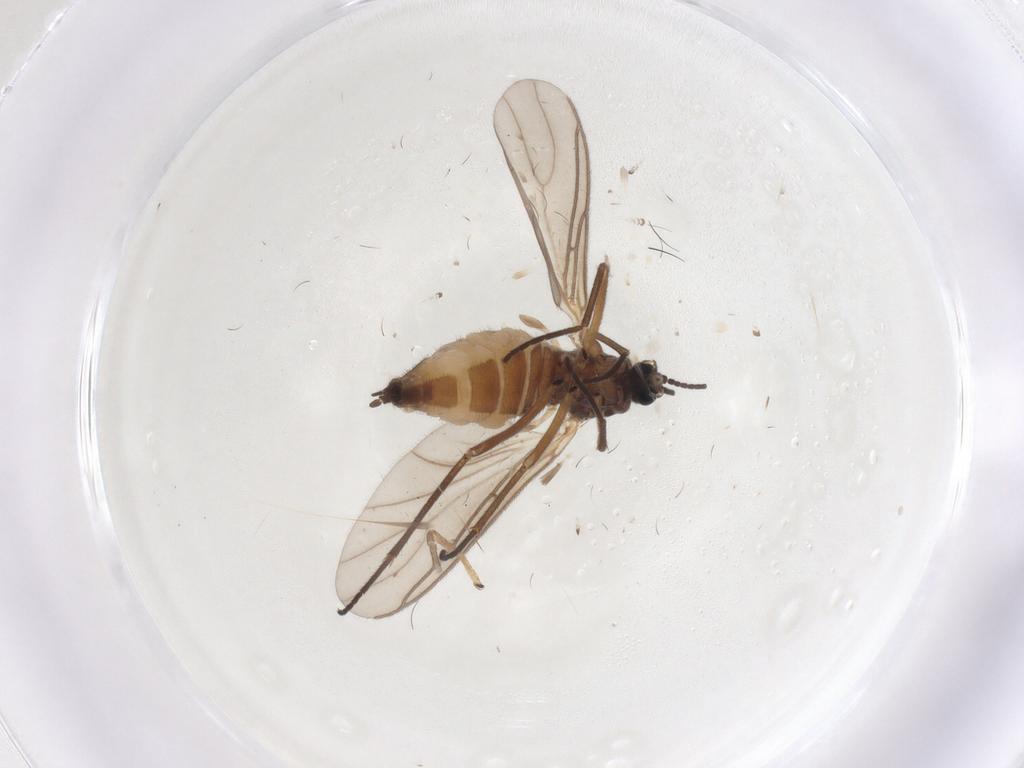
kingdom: Animalia
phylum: Arthropoda
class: Insecta
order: Diptera
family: Sciaridae
